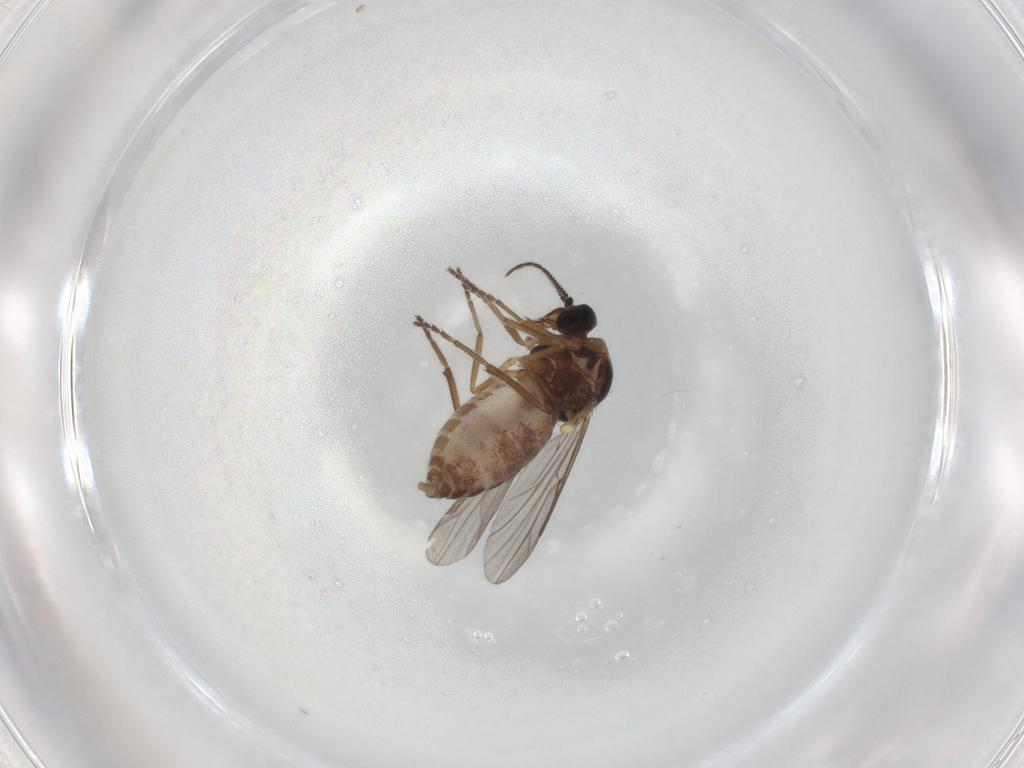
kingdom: Animalia
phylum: Arthropoda
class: Insecta
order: Diptera
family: Ceratopogonidae
